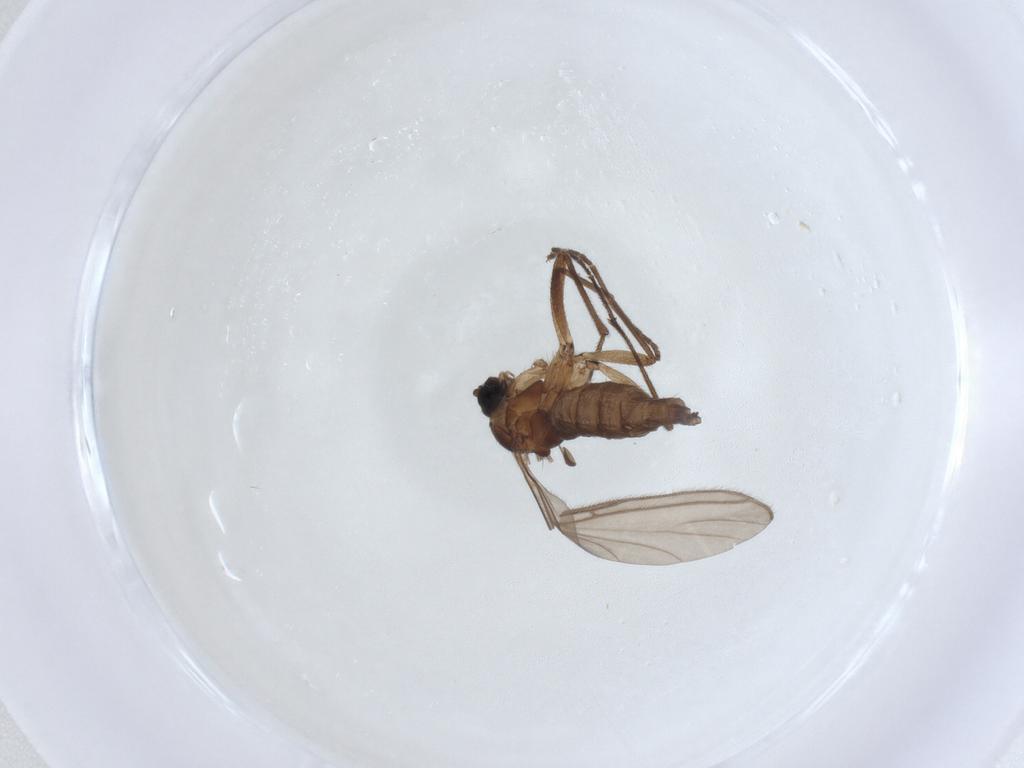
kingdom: Animalia
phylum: Arthropoda
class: Insecta
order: Diptera
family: Sciaridae
